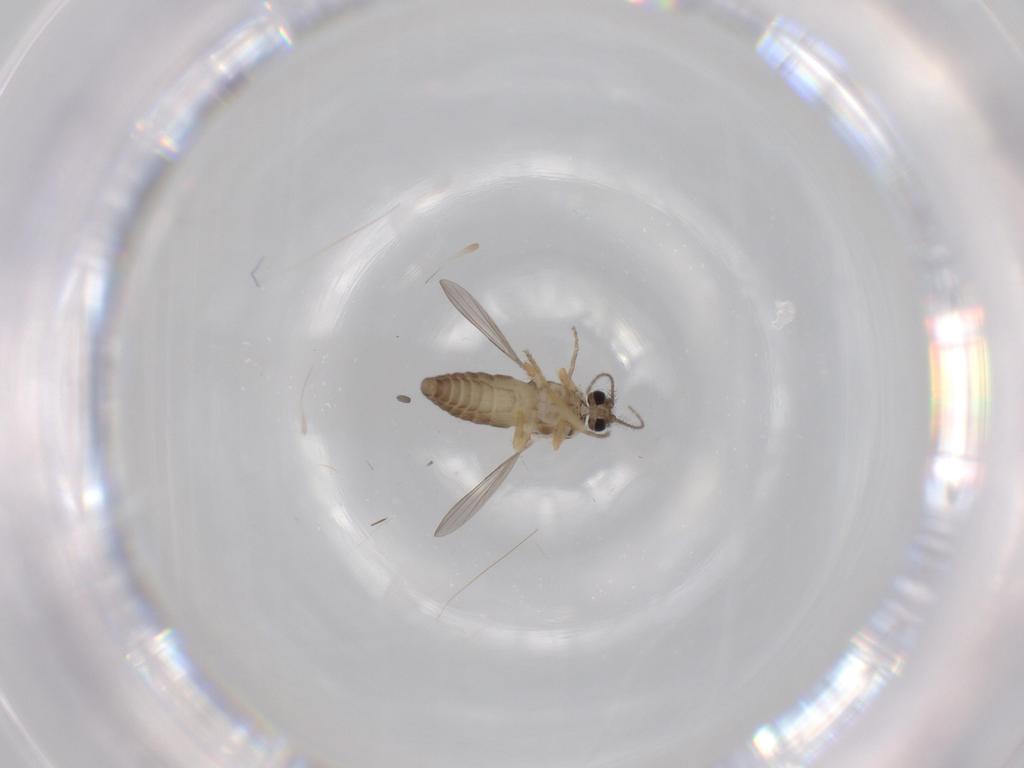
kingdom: Animalia
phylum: Arthropoda
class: Insecta
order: Diptera
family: Ceratopogonidae
